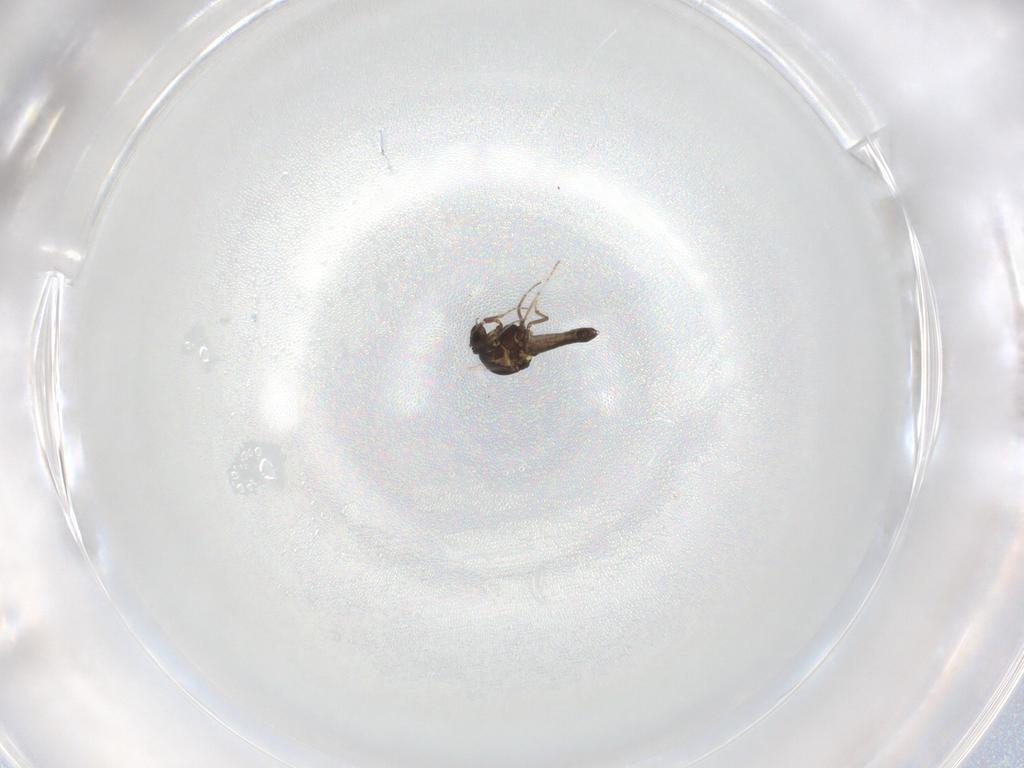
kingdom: Animalia
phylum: Arthropoda
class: Insecta
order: Diptera
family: Ceratopogonidae
